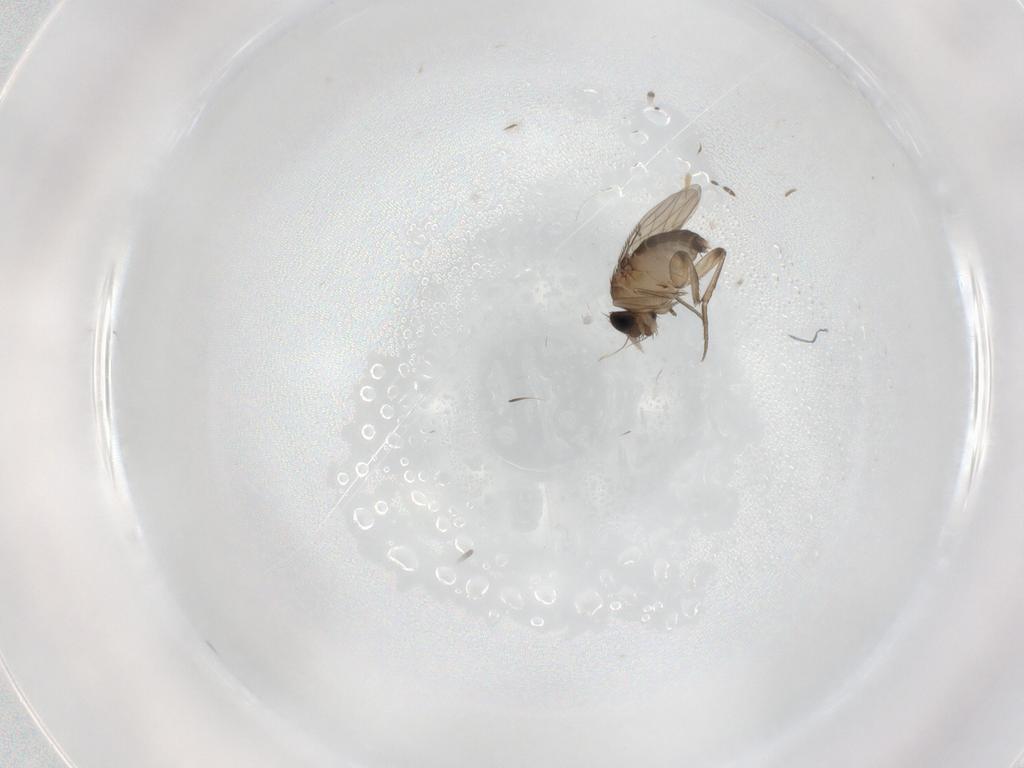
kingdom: Animalia
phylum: Arthropoda
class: Insecta
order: Diptera
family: Phoridae
